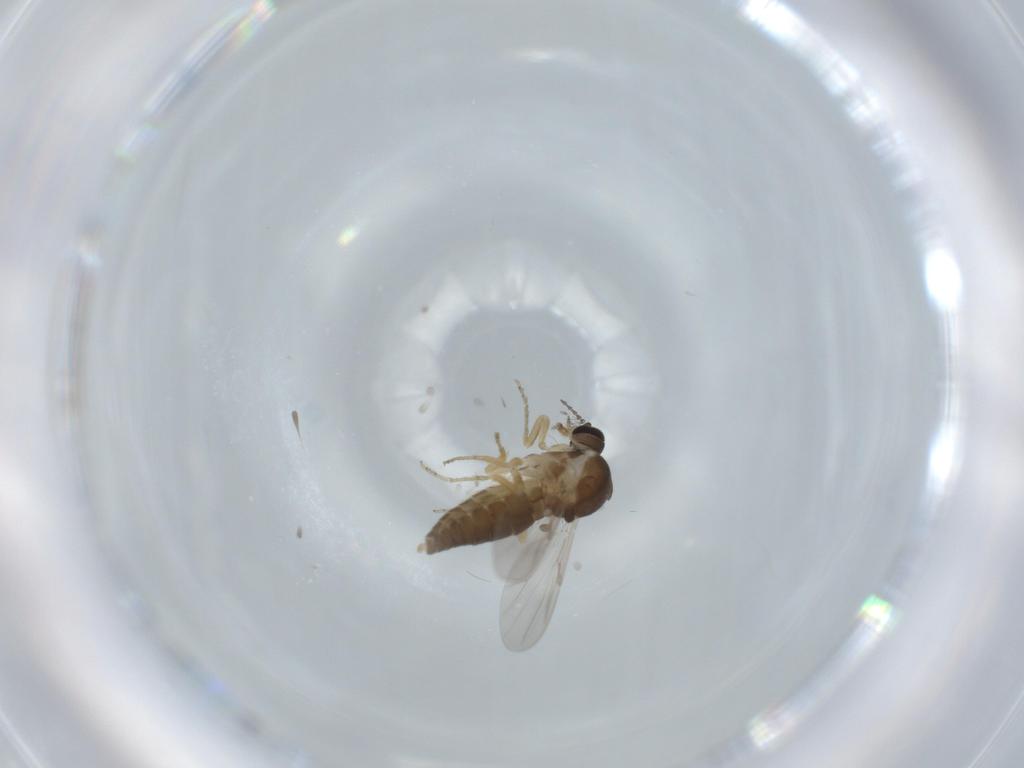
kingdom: Animalia
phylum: Arthropoda
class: Insecta
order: Diptera
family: Ceratopogonidae
